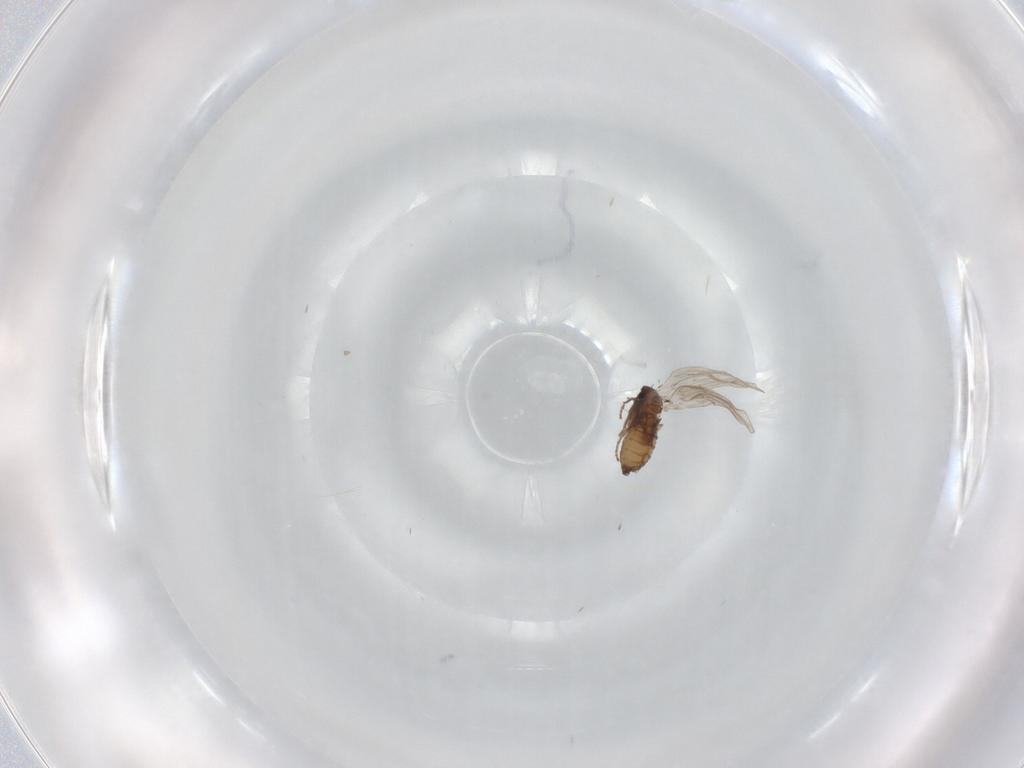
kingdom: Animalia
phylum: Arthropoda
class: Insecta
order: Diptera
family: Psychodidae
